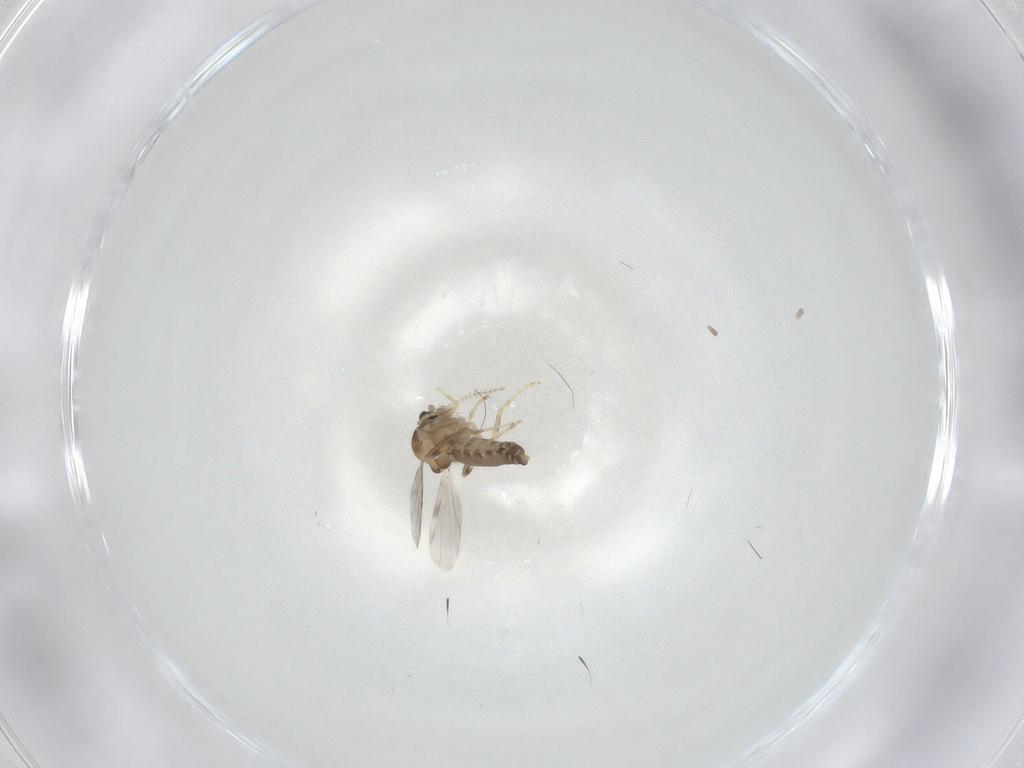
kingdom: Animalia
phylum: Arthropoda
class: Insecta
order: Diptera
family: Ceratopogonidae
